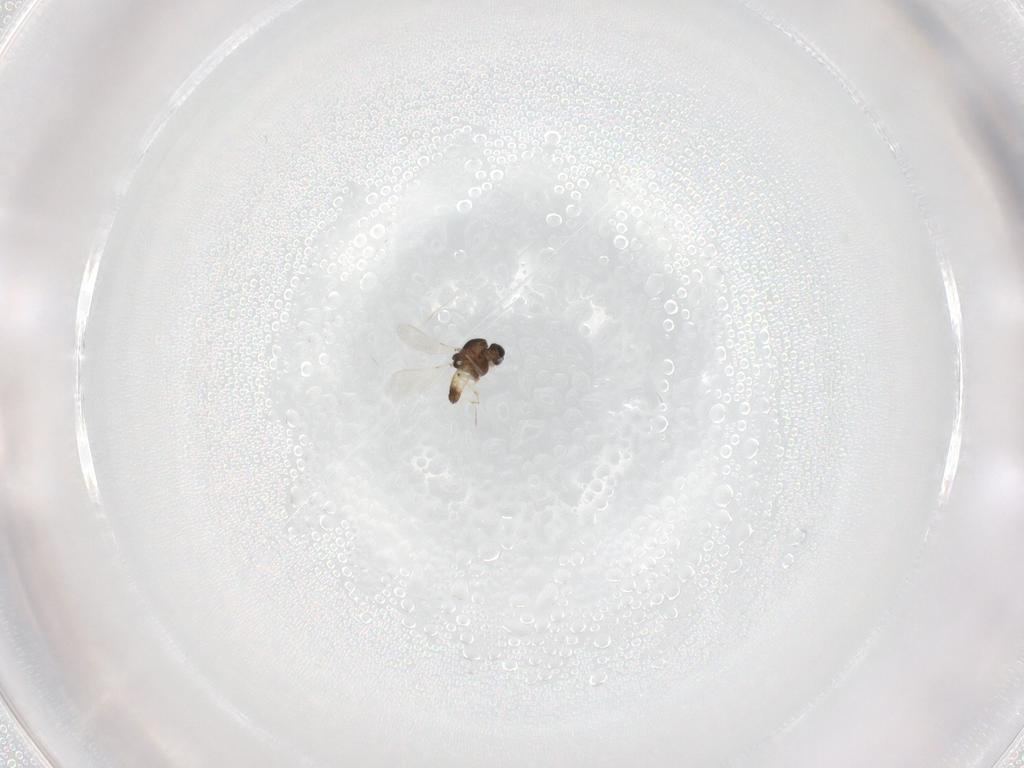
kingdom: Animalia
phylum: Arthropoda
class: Insecta
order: Diptera
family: Chironomidae
